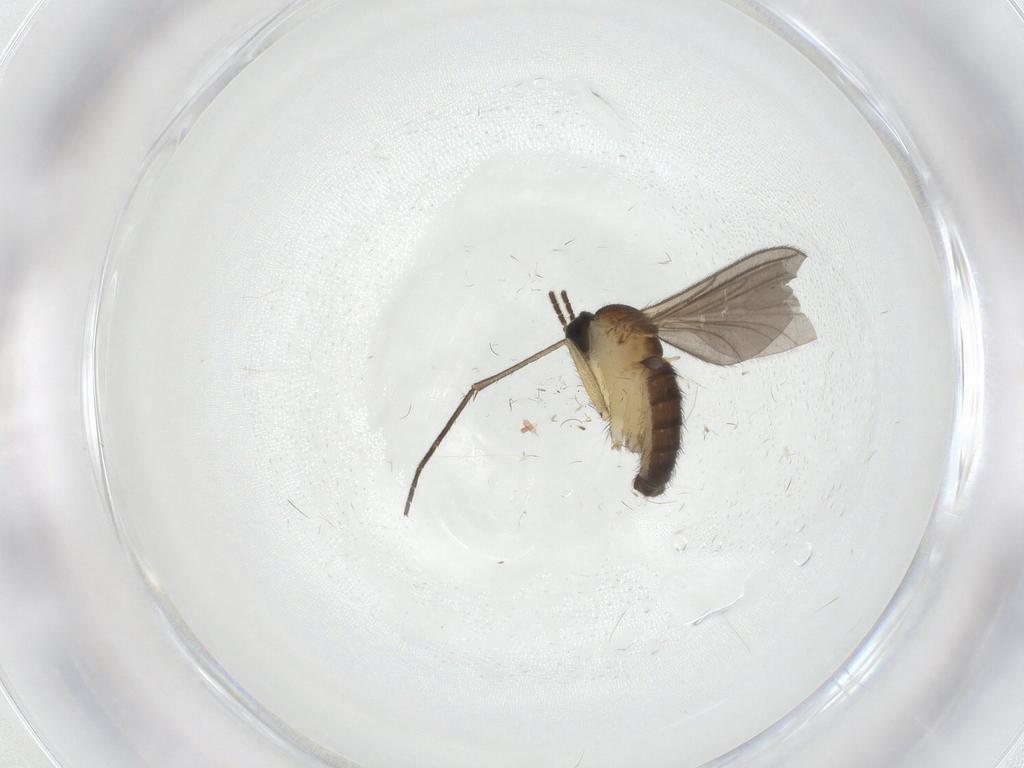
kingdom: Animalia
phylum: Arthropoda
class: Insecta
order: Diptera
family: Sciaridae
